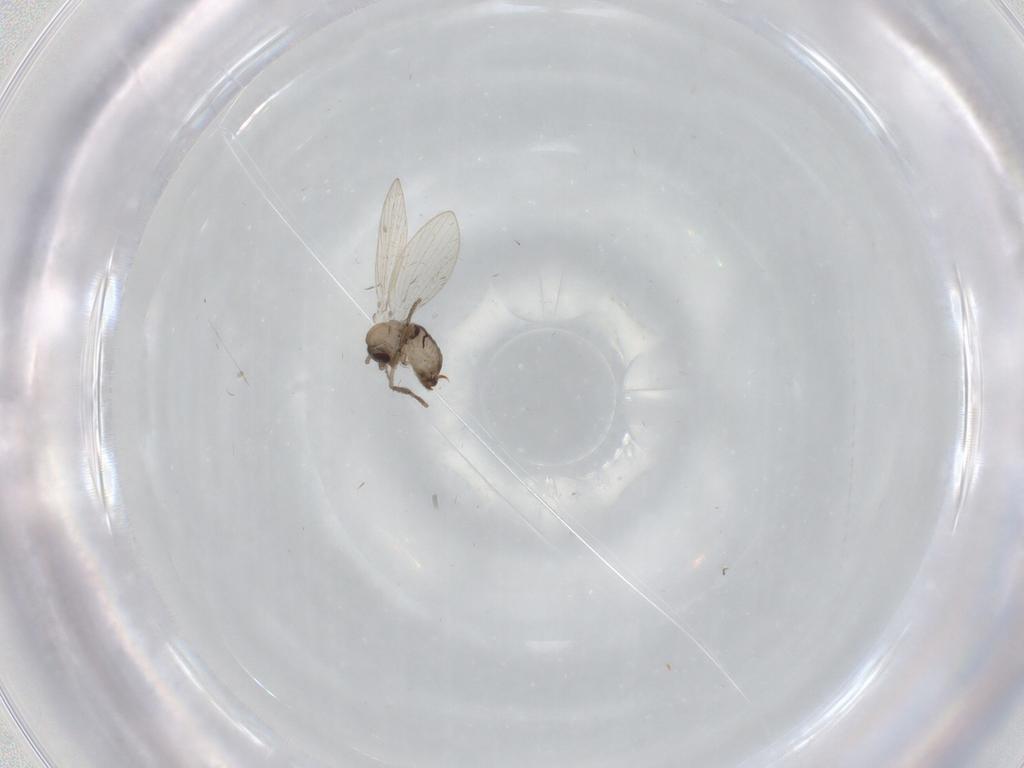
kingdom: Animalia
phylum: Arthropoda
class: Insecta
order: Diptera
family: Psychodidae
